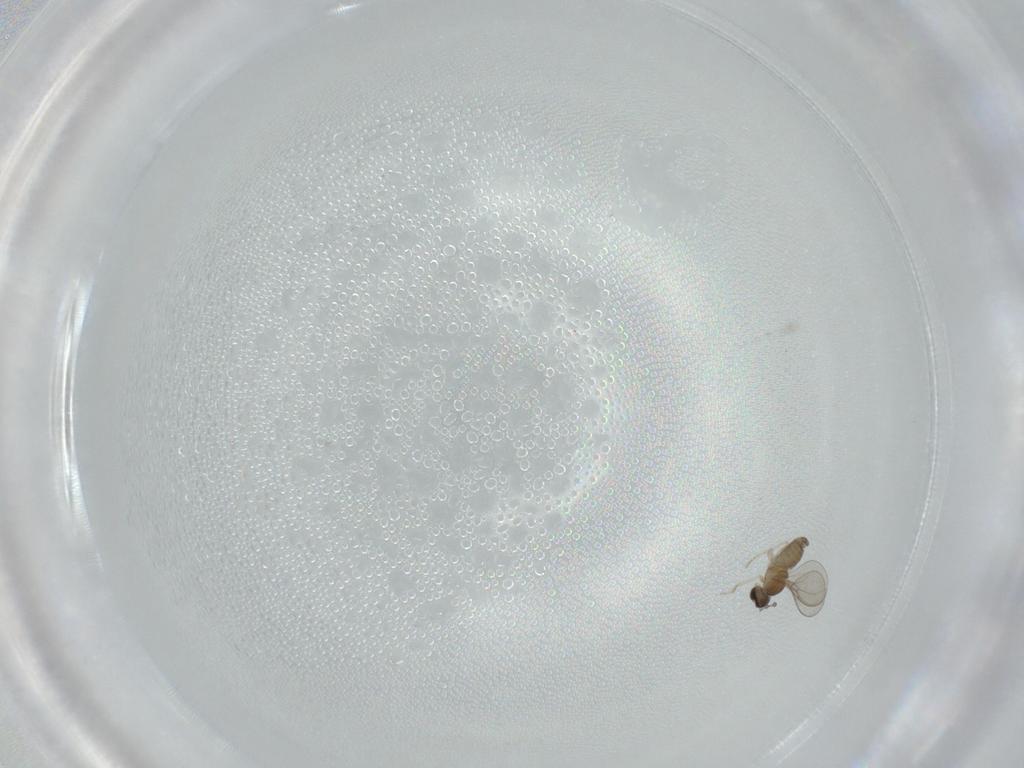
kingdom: Animalia
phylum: Arthropoda
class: Insecta
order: Diptera
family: Cecidomyiidae
